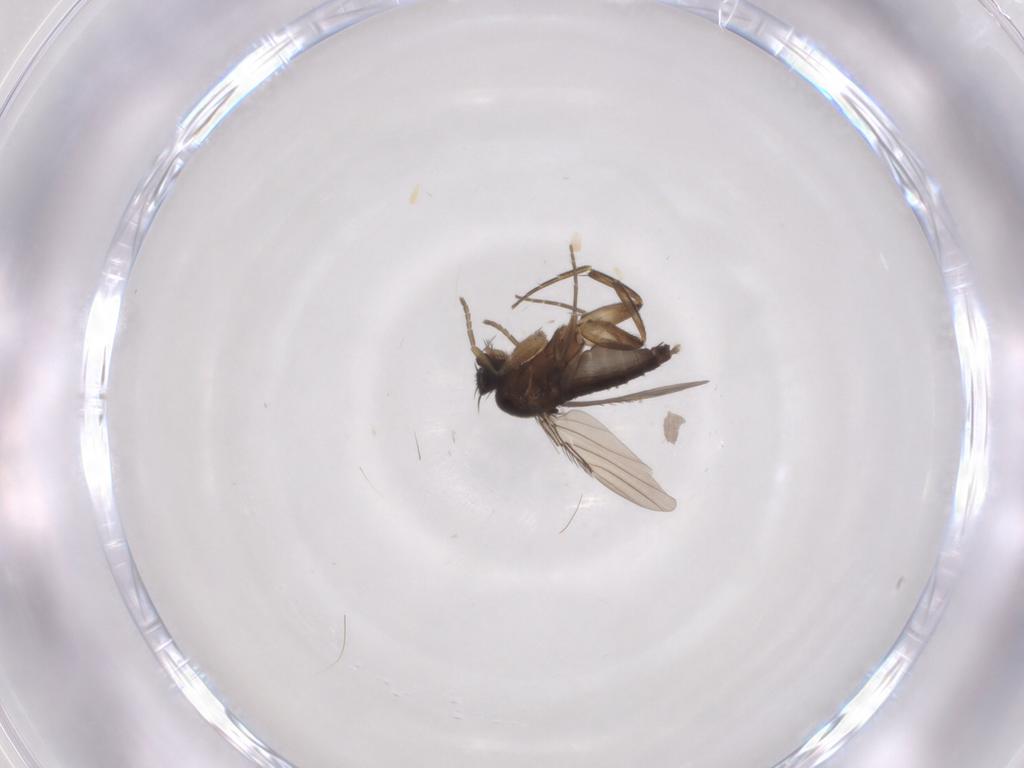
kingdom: Animalia
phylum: Arthropoda
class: Insecta
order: Diptera
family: Phoridae
